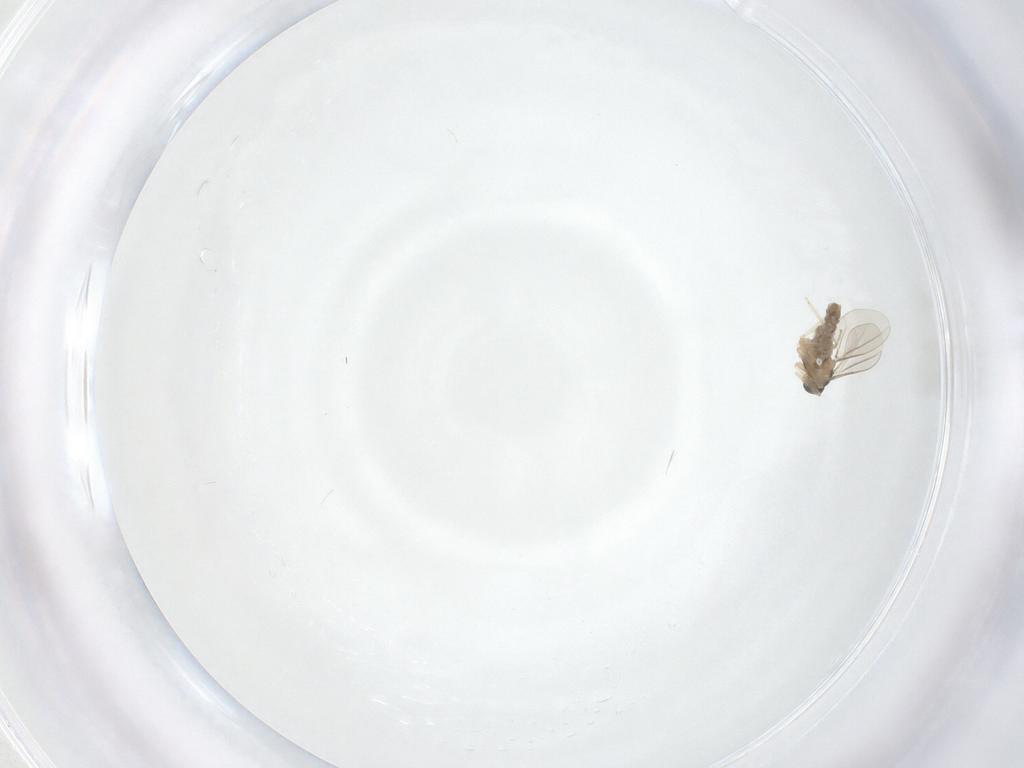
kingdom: Animalia
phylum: Arthropoda
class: Insecta
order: Diptera
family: Cecidomyiidae
